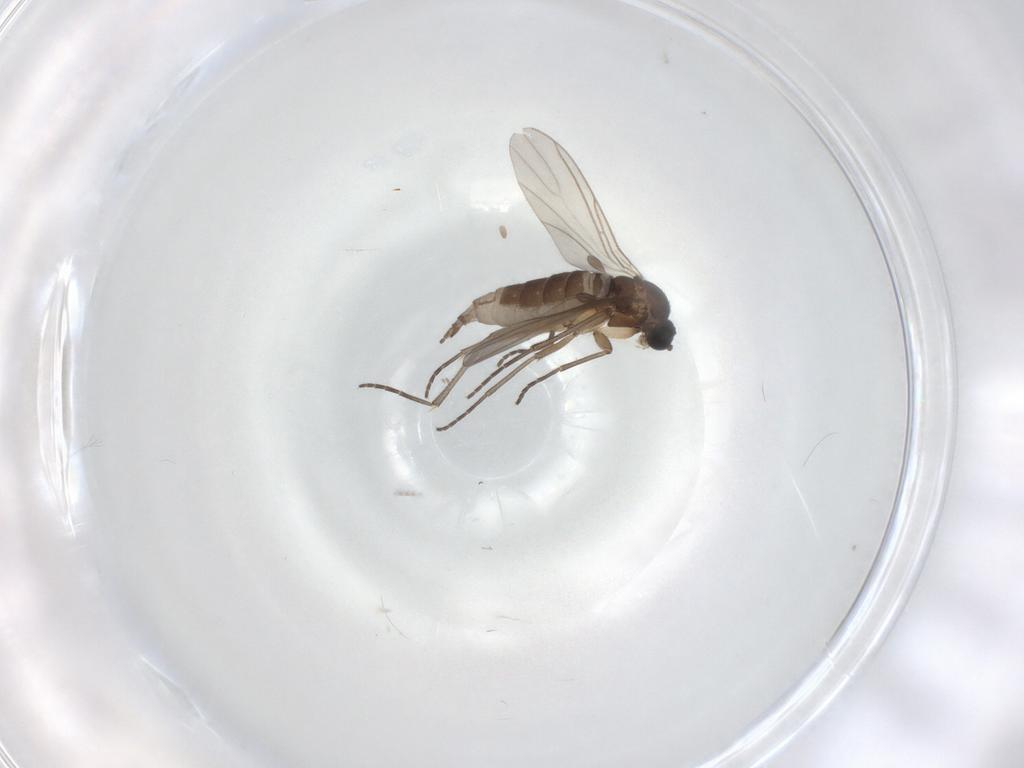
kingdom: Animalia
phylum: Arthropoda
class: Insecta
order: Diptera
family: Sciaridae
